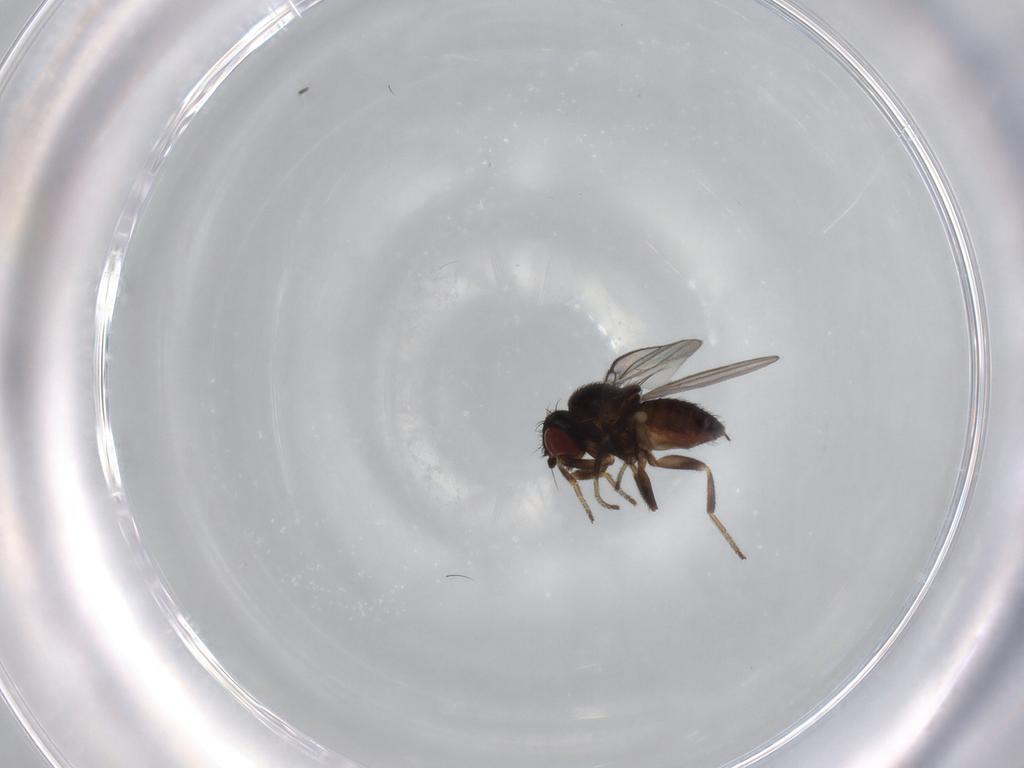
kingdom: Animalia
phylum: Arthropoda
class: Insecta
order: Diptera
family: Milichiidae
